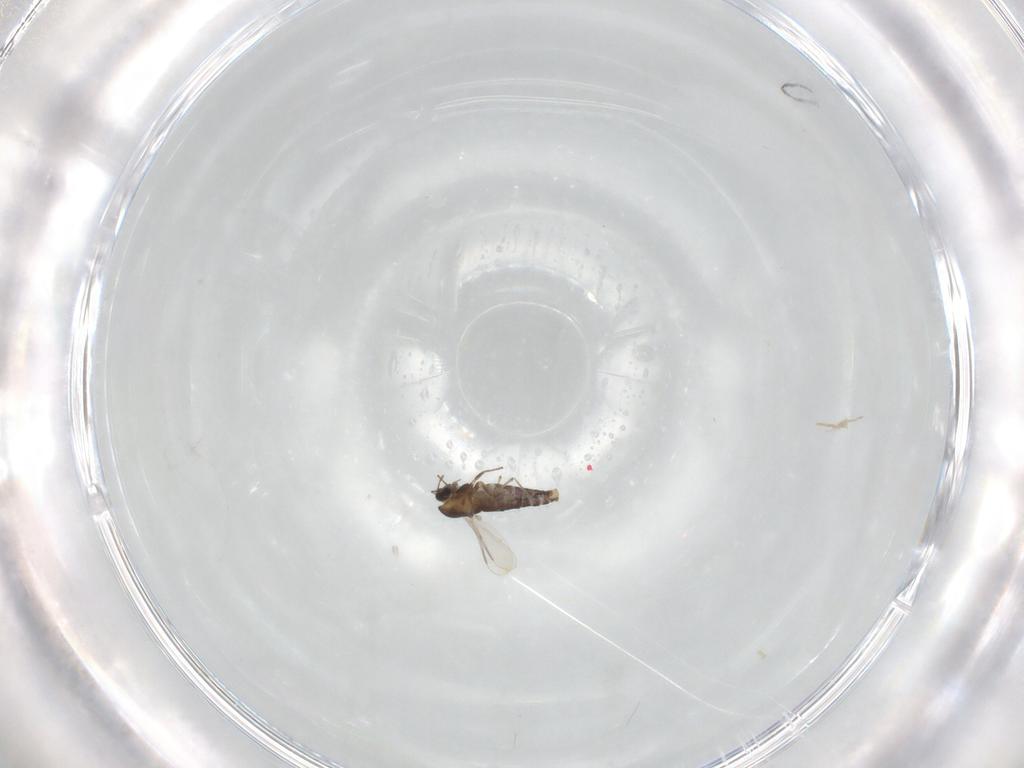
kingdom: Animalia
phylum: Arthropoda
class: Insecta
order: Diptera
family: Chironomidae
